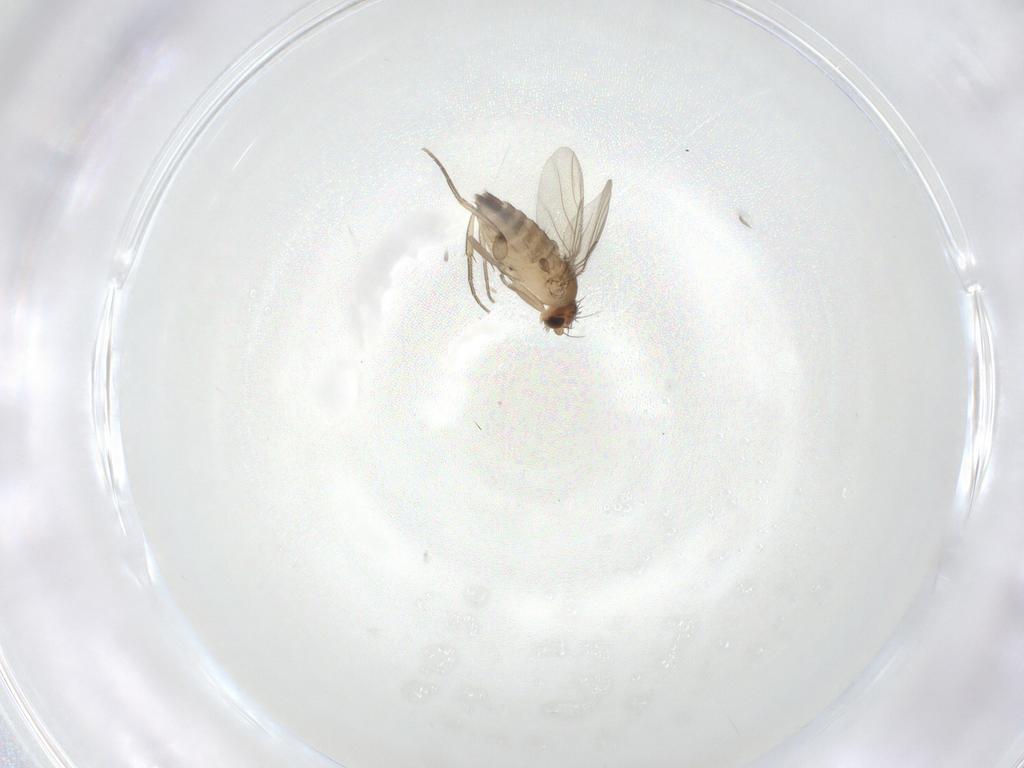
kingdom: Animalia
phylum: Arthropoda
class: Insecta
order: Diptera
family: Phoridae
